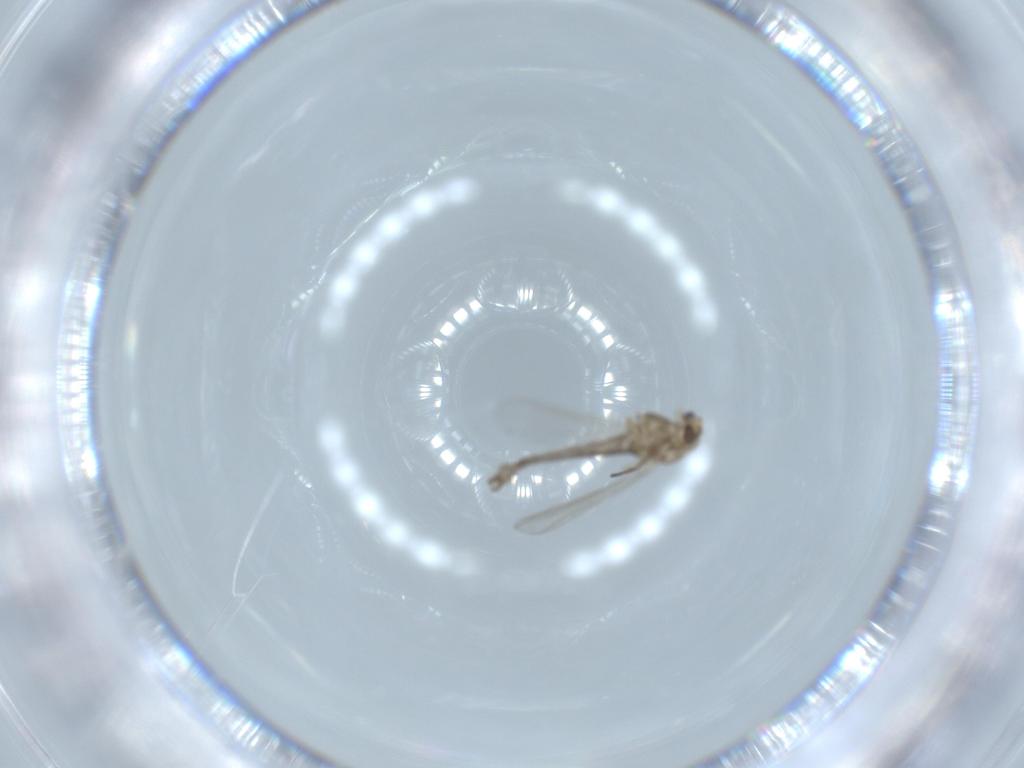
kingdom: Animalia
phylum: Arthropoda
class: Insecta
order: Diptera
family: Chironomidae
